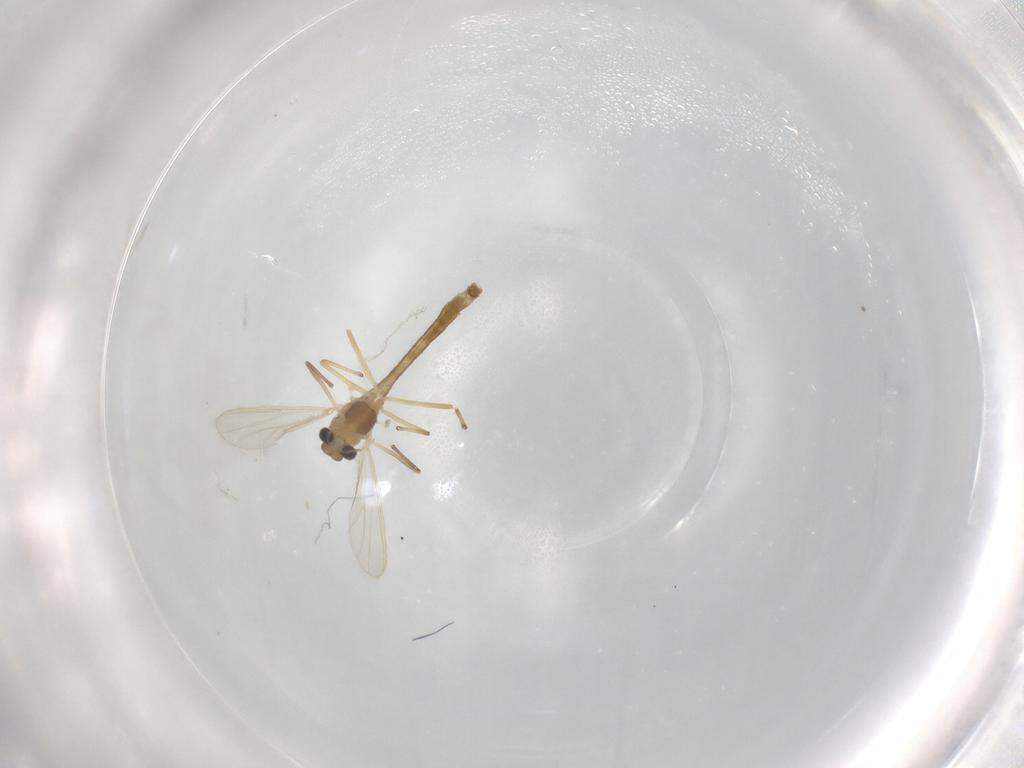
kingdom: Animalia
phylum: Arthropoda
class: Insecta
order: Diptera
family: Chironomidae
